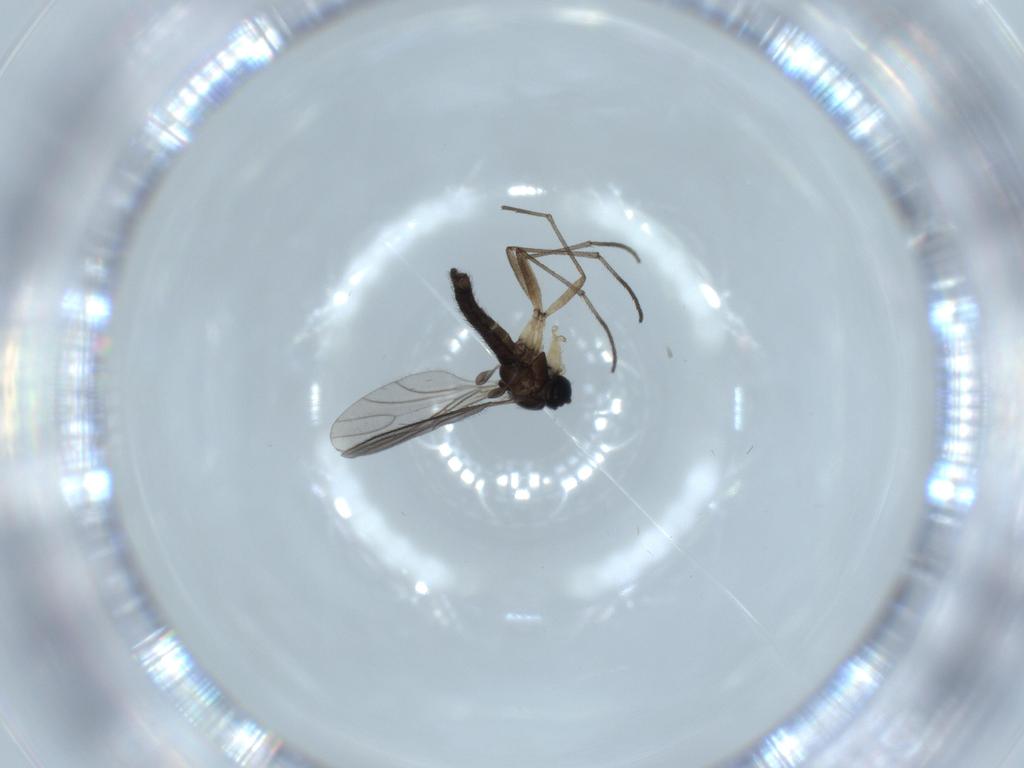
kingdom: Animalia
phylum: Arthropoda
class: Insecta
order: Diptera
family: Sciaridae
